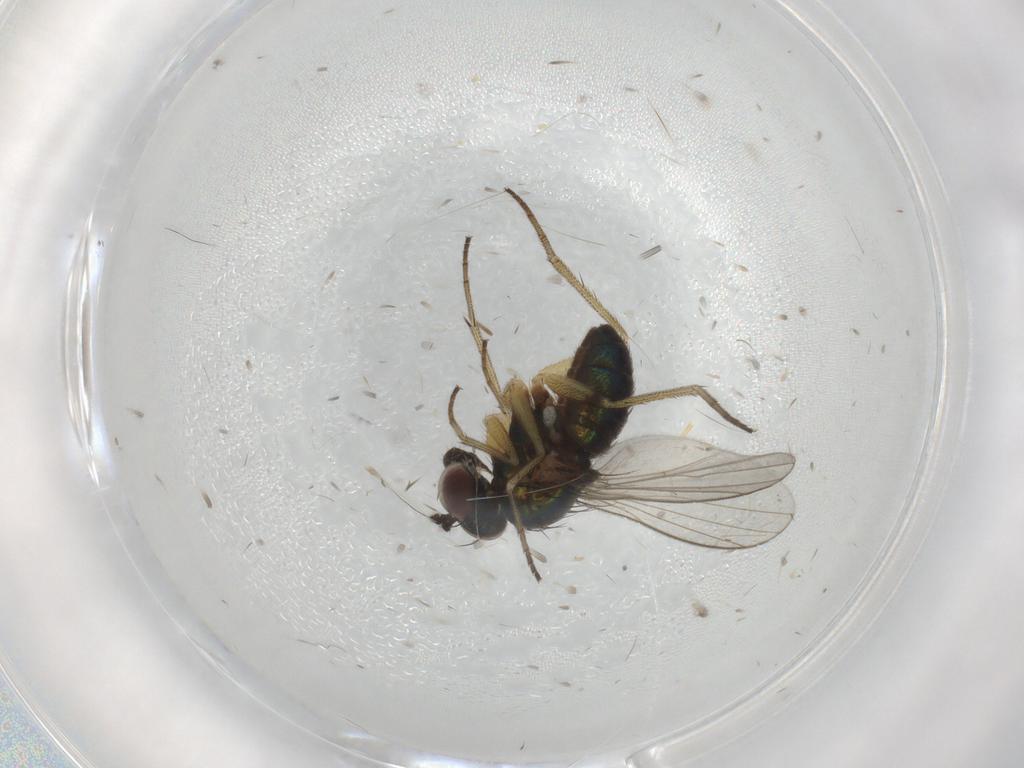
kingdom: Animalia
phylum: Arthropoda
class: Insecta
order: Diptera
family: Dolichopodidae
